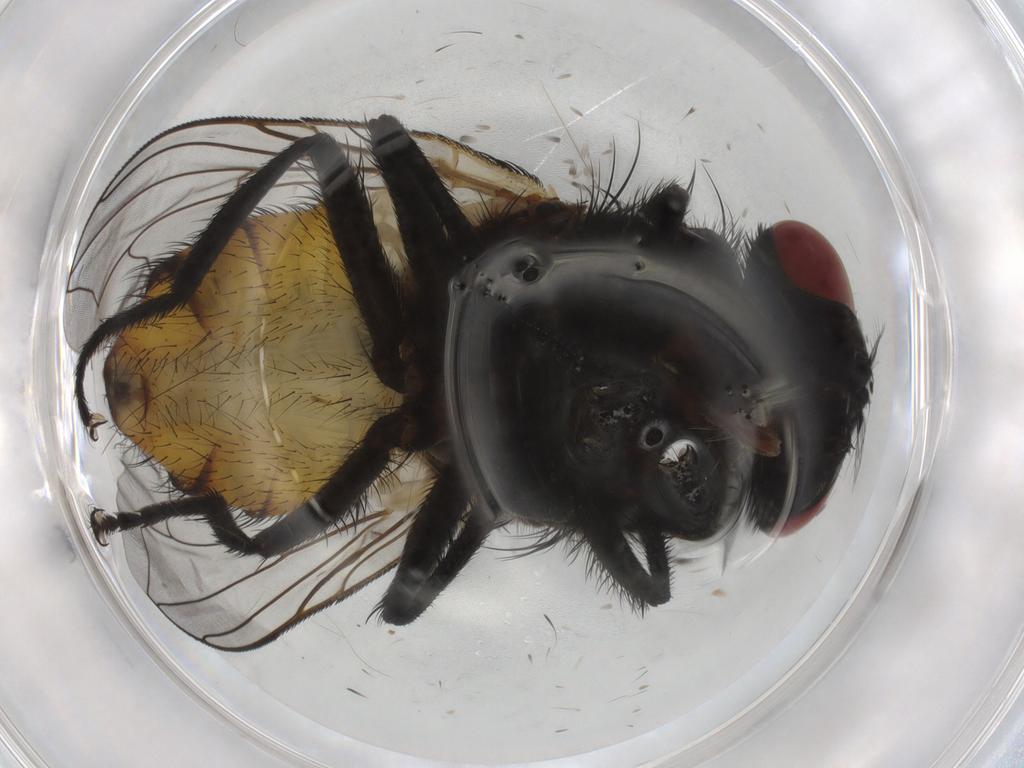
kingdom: Animalia
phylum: Arthropoda
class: Insecta
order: Diptera
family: Muscidae
